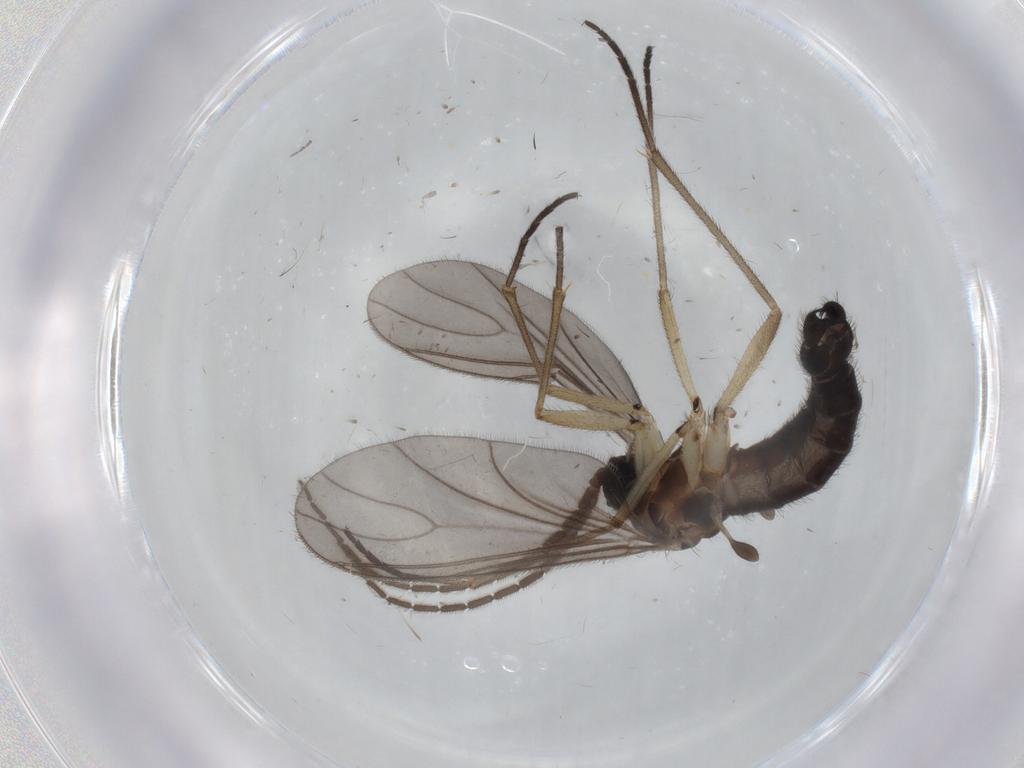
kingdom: Animalia
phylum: Arthropoda
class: Insecta
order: Diptera
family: Sciaridae
